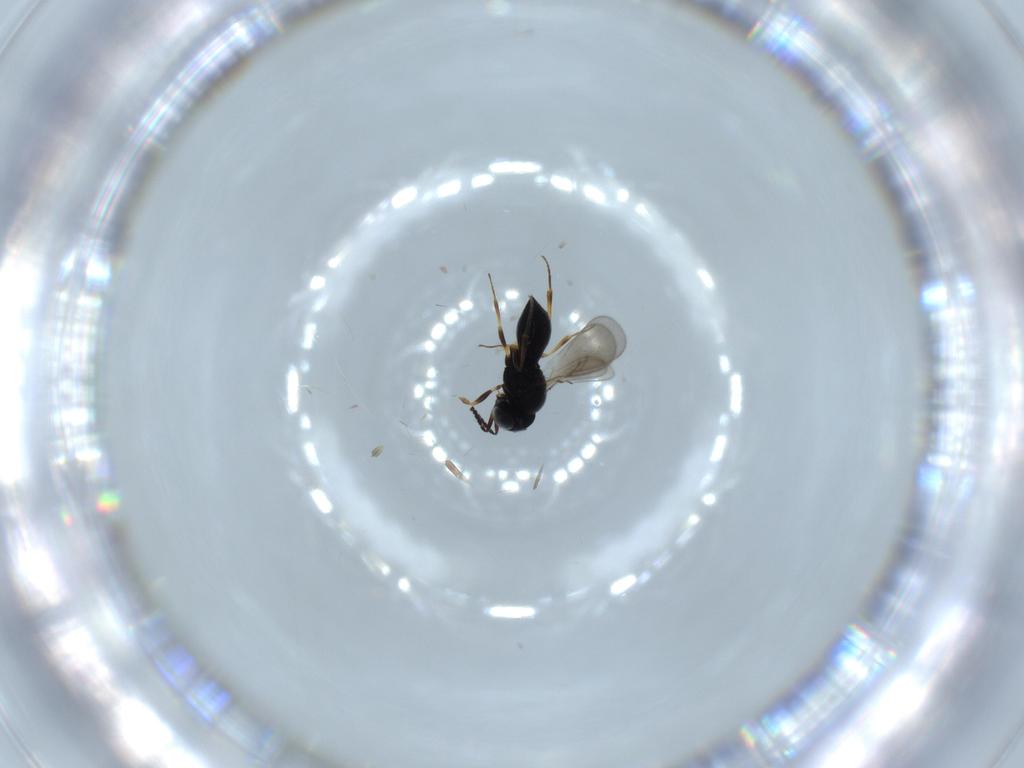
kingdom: Animalia
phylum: Arthropoda
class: Insecta
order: Hymenoptera
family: Scelionidae
